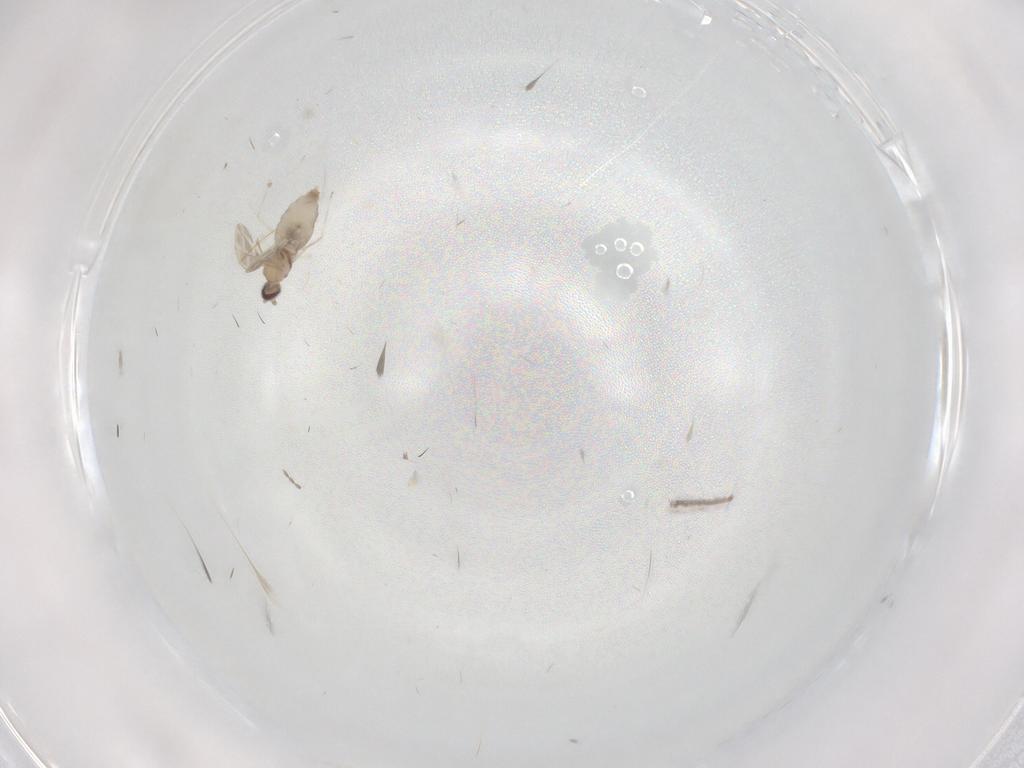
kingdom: Animalia
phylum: Arthropoda
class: Insecta
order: Diptera
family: Cecidomyiidae
